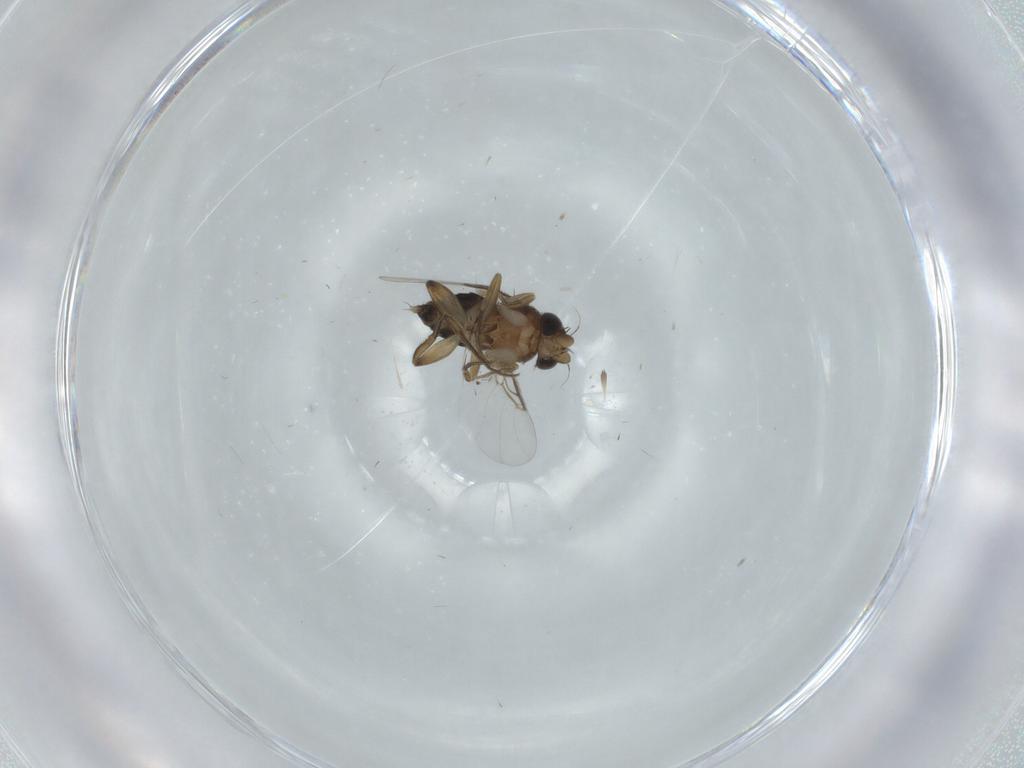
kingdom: Animalia
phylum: Arthropoda
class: Insecta
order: Diptera
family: Phoridae
